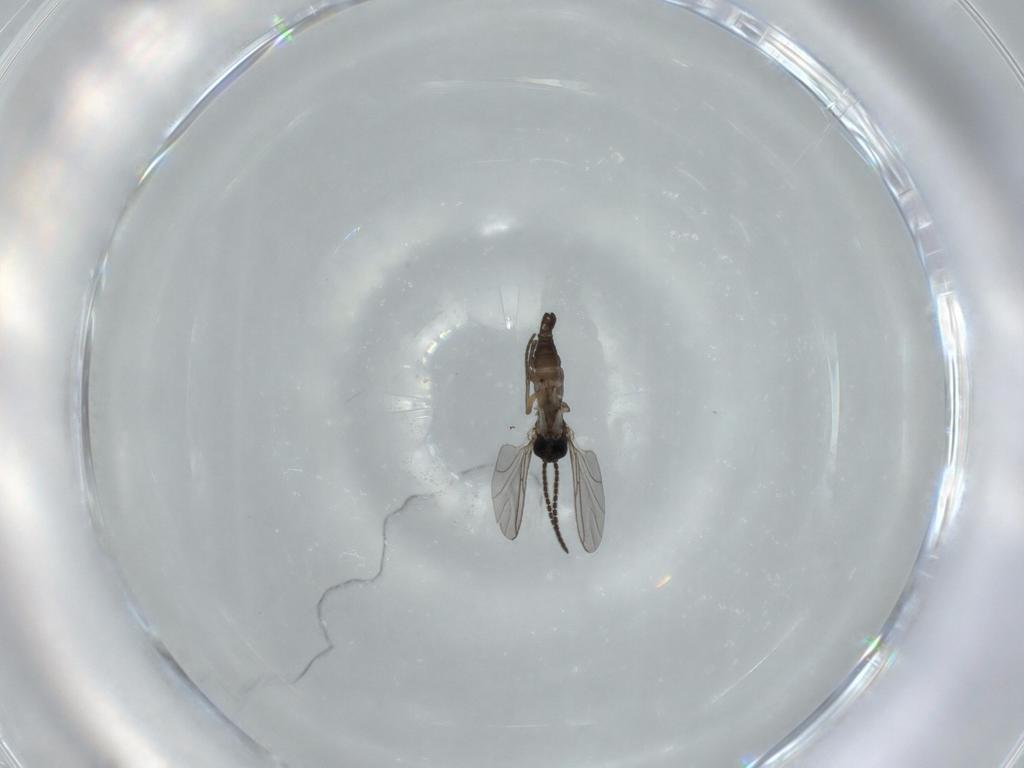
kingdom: Animalia
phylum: Arthropoda
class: Insecta
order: Diptera
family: Sciaridae
